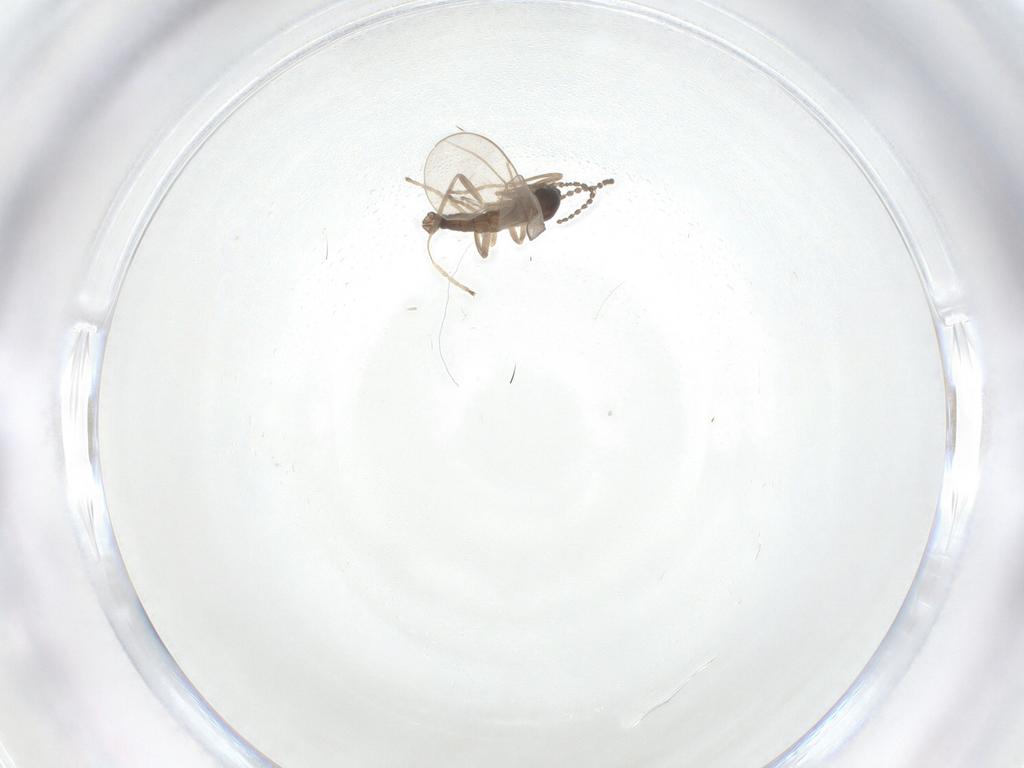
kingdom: Animalia
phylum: Arthropoda
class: Insecta
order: Diptera
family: Cecidomyiidae
